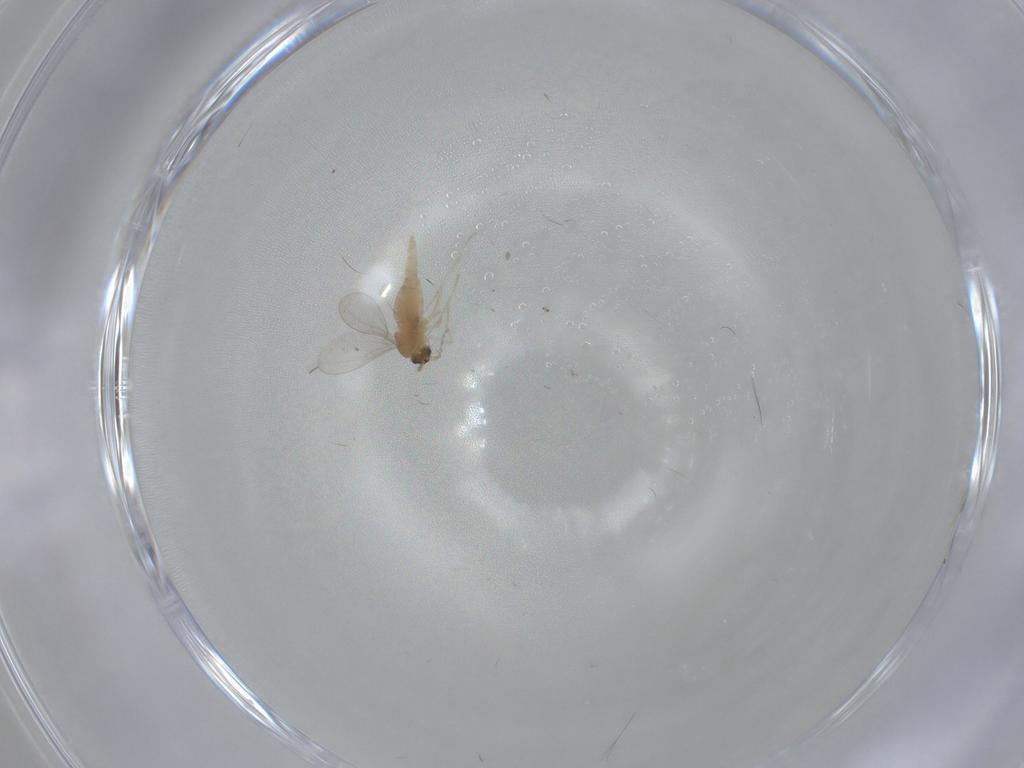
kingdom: Animalia
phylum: Arthropoda
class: Insecta
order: Diptera
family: Cecidomyiidae
